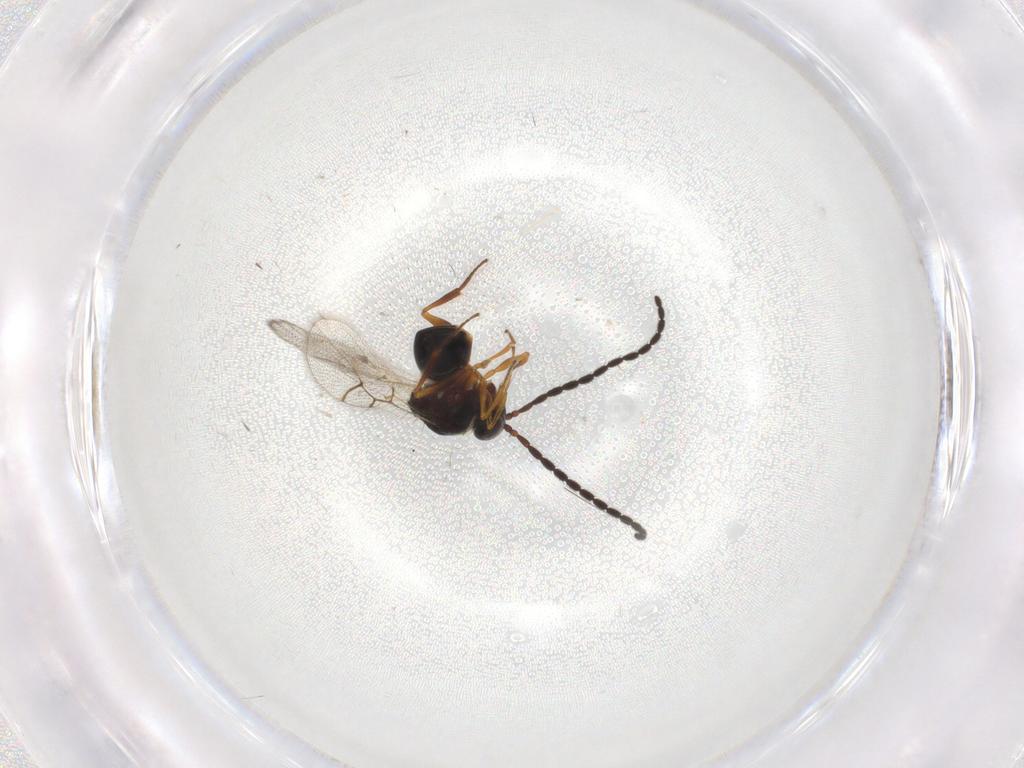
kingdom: Animalia
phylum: Arthropoda
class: Insecta
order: Hymenoptera
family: Figitidae
